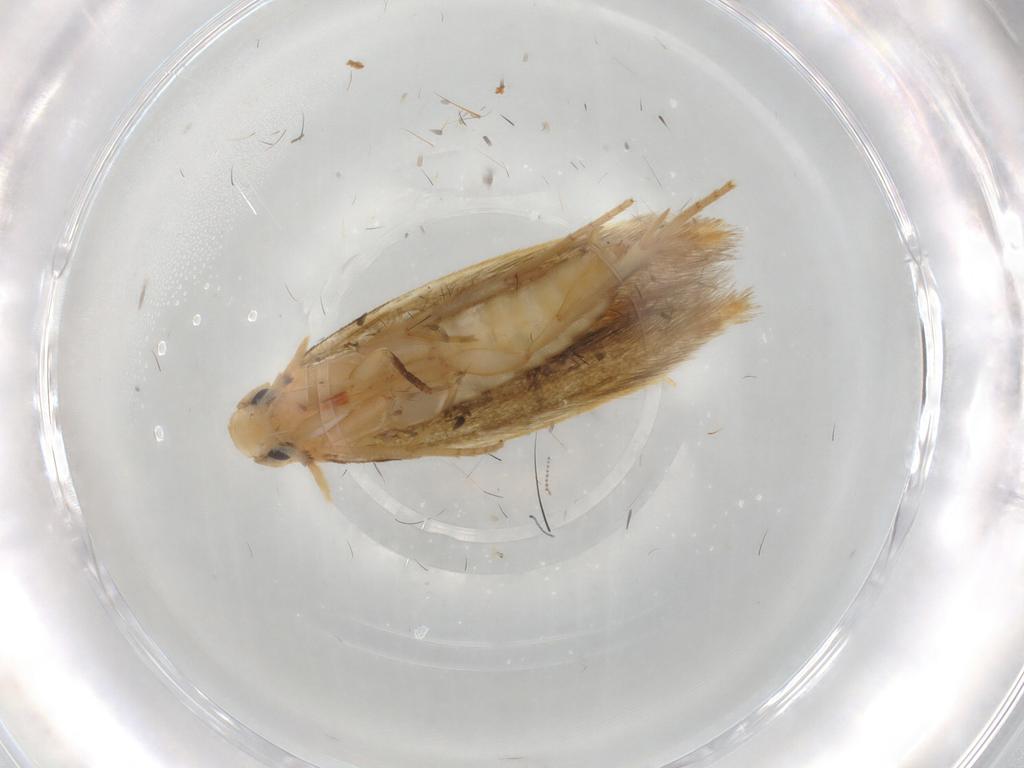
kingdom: Animalia
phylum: Arthropoda
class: Insecta
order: Lepidoptera
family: Tineidae
